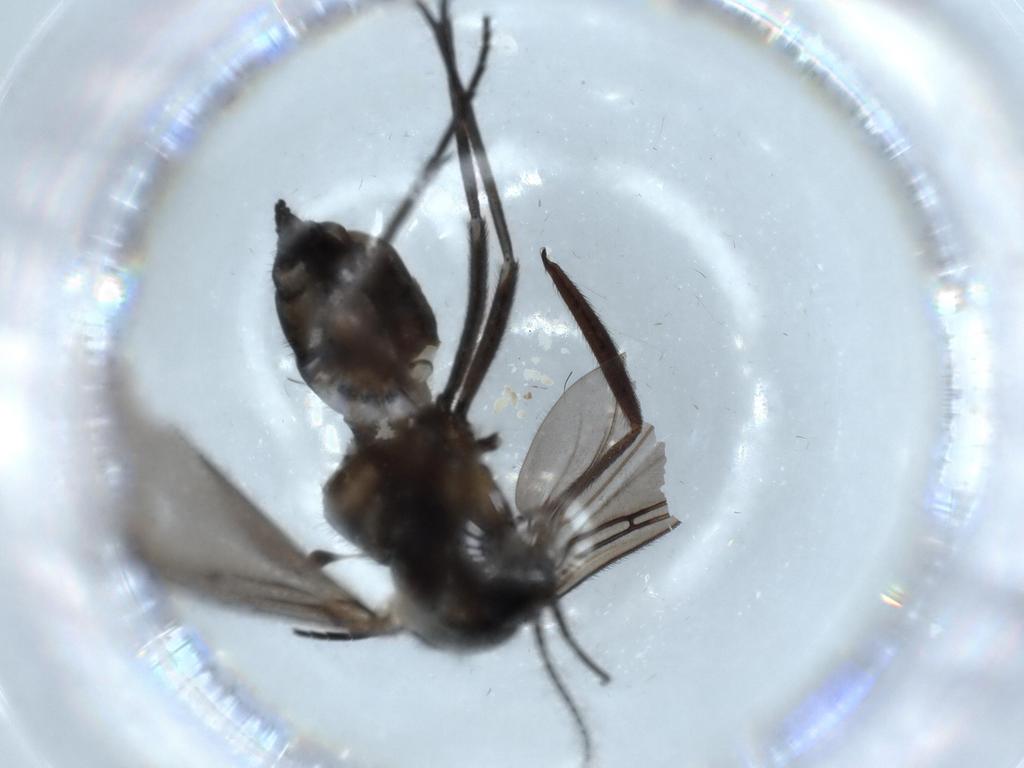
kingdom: Animalia
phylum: Arthropoda
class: Insecta
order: Diptera
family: Sciaridae
